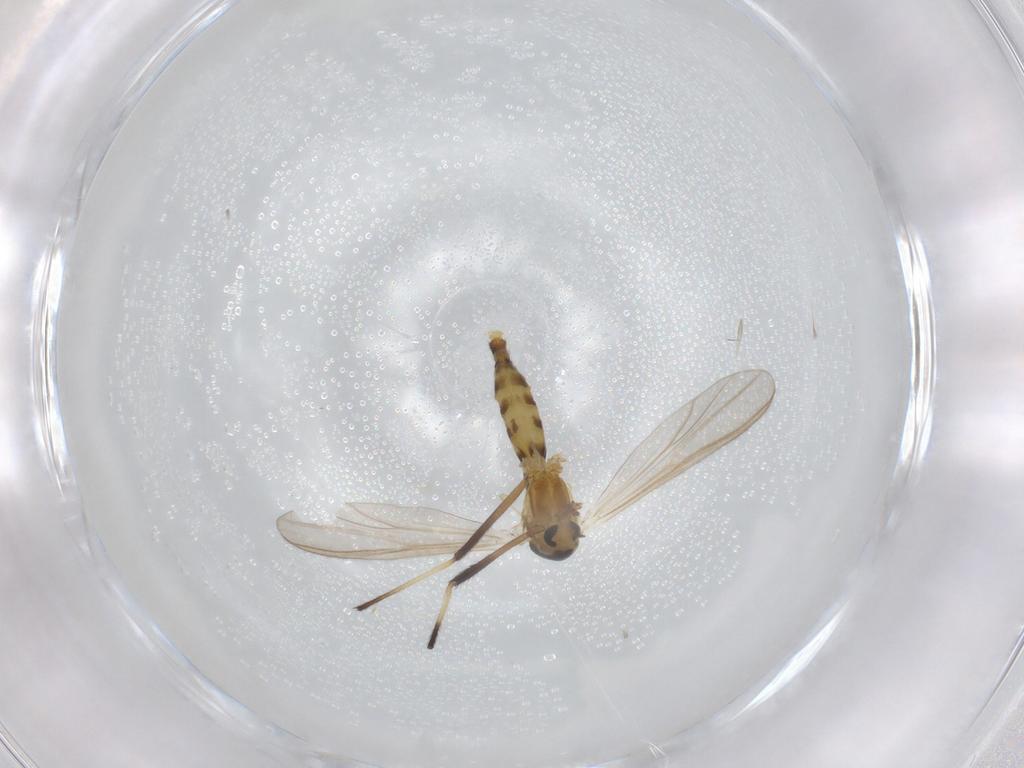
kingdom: Animalia
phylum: Arthropoda
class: Insecta
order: Diptera
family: Chironomidae
